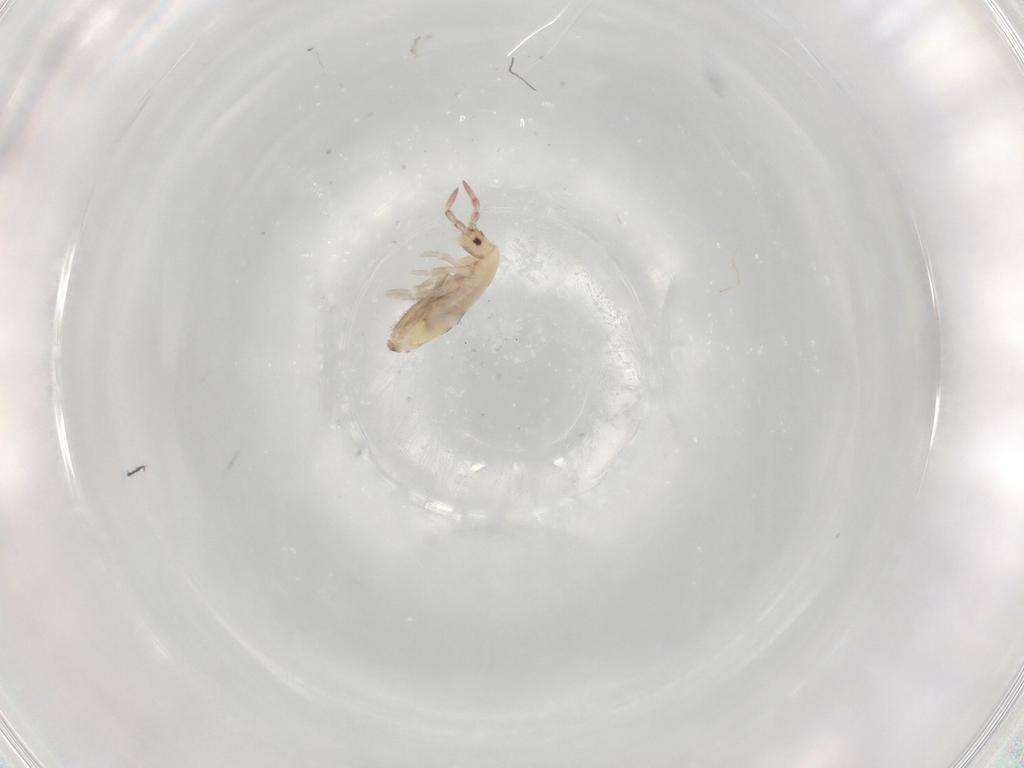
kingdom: Animalia
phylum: Arthropoda
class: Collembola
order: Entomobryomorpha
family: Entomobryidae
